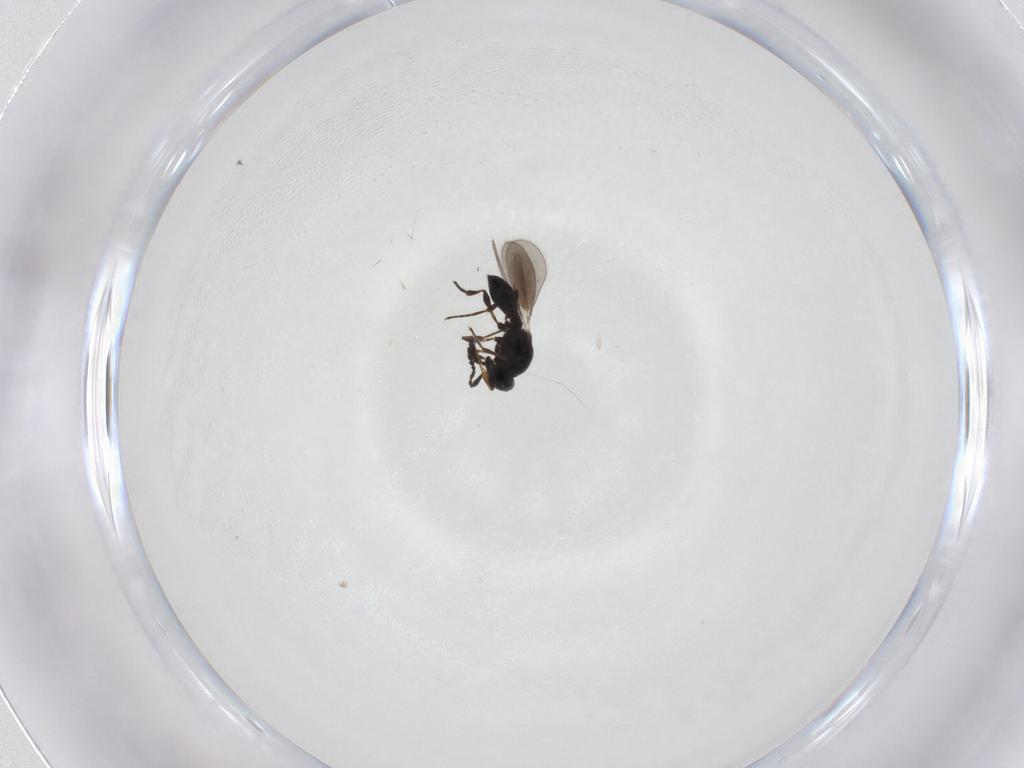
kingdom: Animalia
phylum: Arthropoda
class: Insecta
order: Hymenoptera
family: Platygastridae
